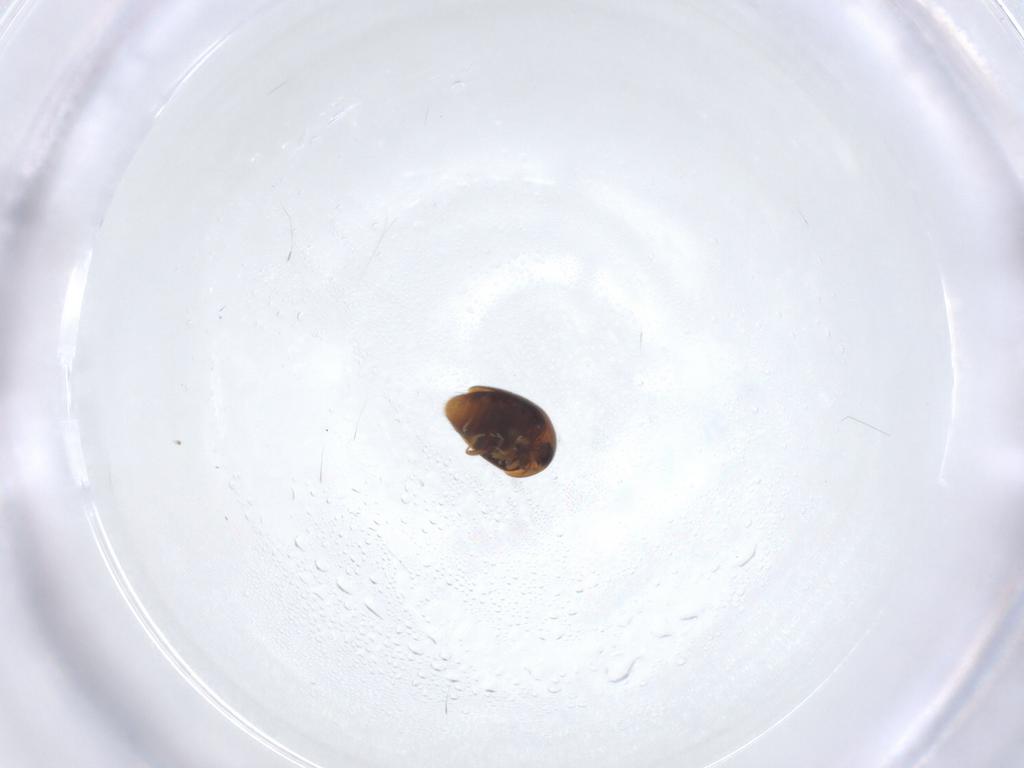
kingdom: Animalia
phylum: Arthropoda
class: Insecta
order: Coleoptera
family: Corylophidae
